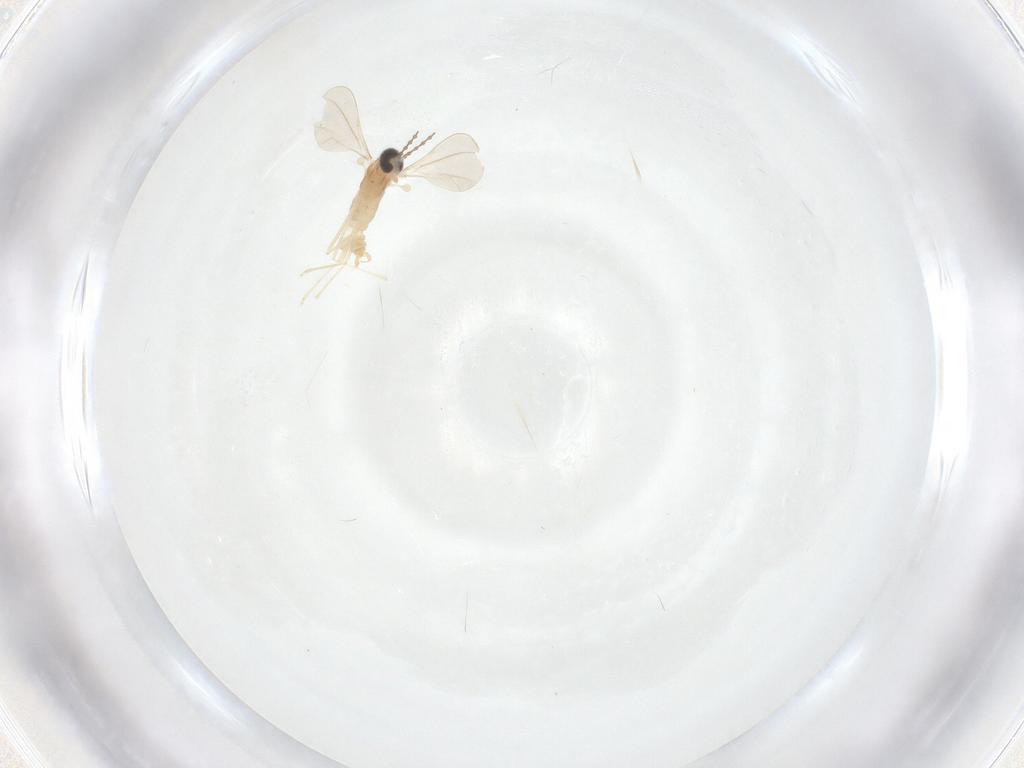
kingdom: Animalia
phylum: Arthropoda
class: Insecta
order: Diptera
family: Cecidomyiidae
